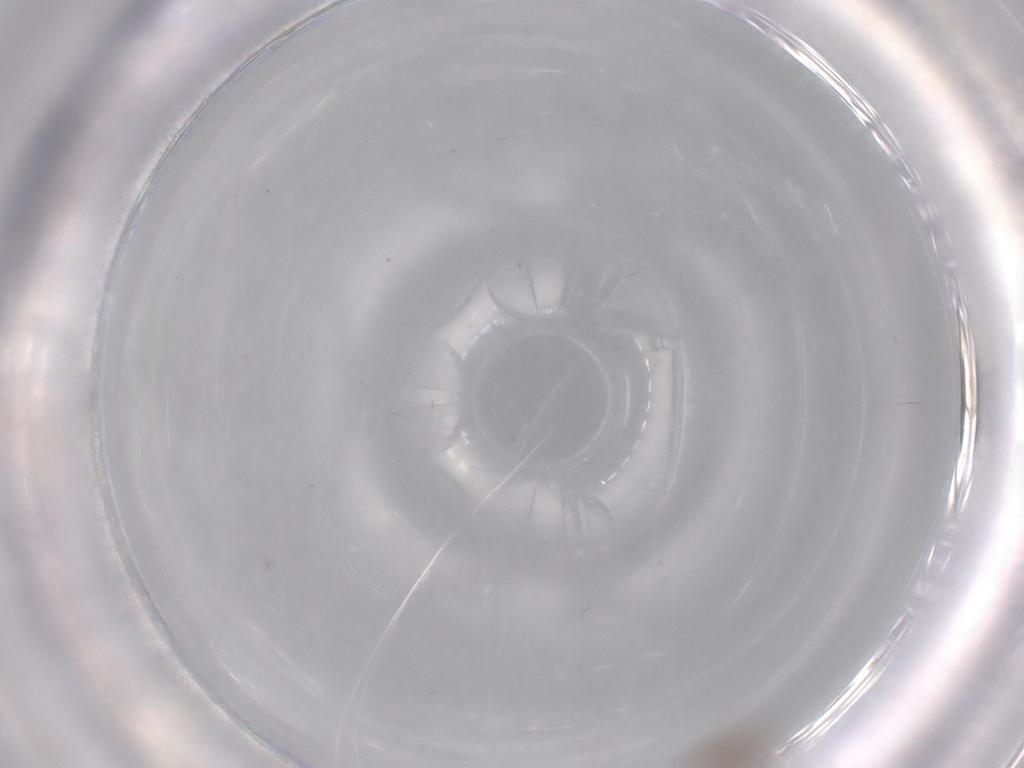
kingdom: Animalia
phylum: Arthropoda
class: Insecta
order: Diptera
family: Ceratopogonidae
